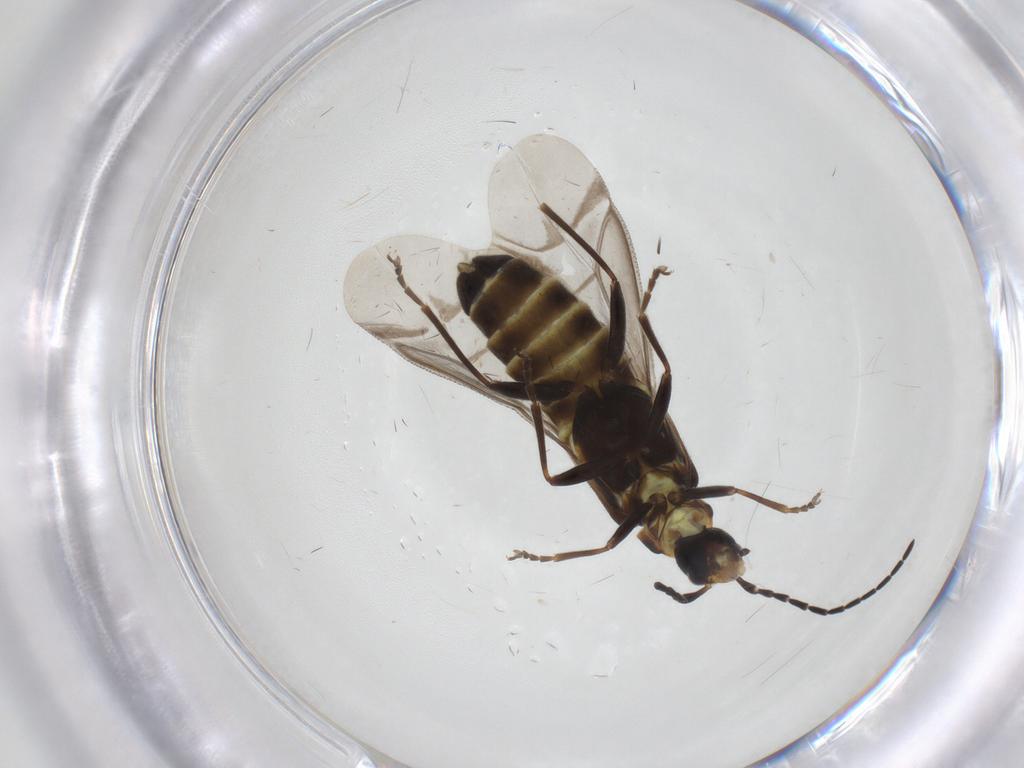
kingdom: Animalia
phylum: Arthropoda
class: Insecta
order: Coleoptera
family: Cantharidae
